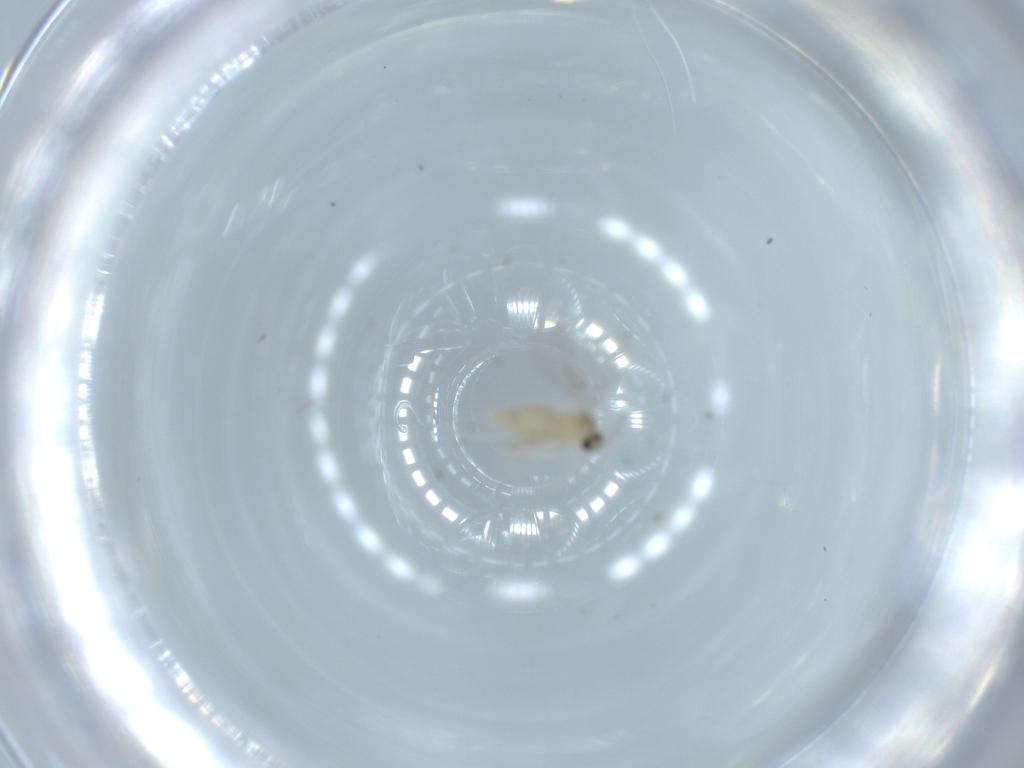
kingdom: Animalia
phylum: Arthropoda
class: Insecta
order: Diptera
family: Cecidomyiidae
